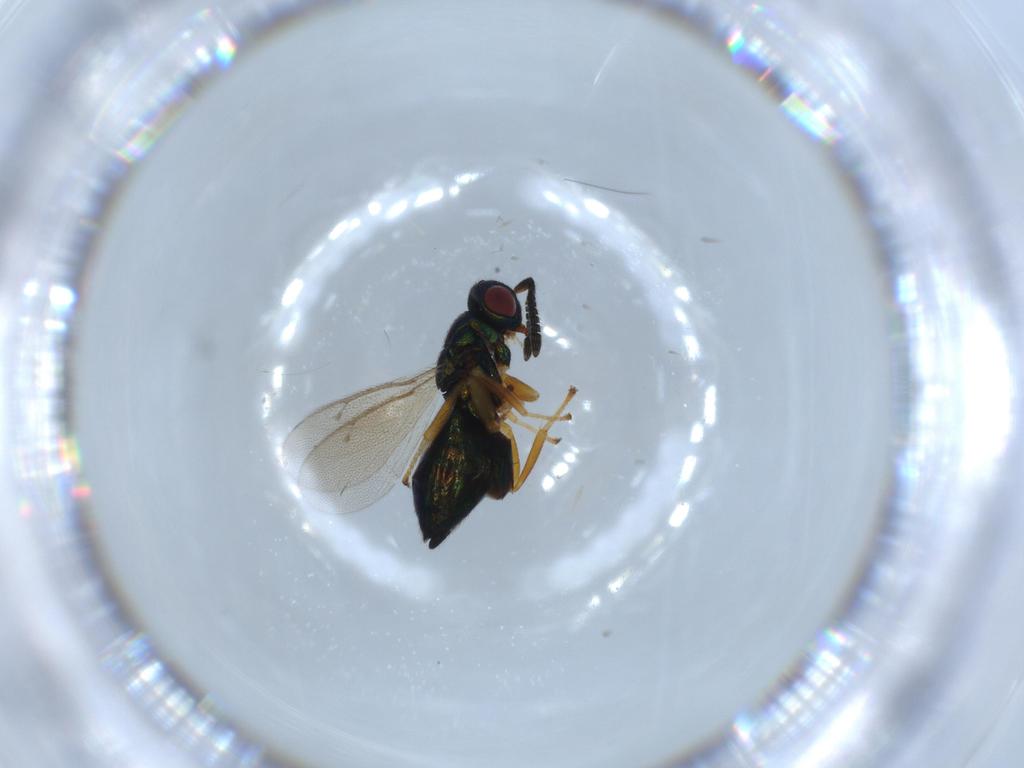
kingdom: Animalia
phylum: Arthropoda
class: Insecta
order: Hymenoptera
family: Pteromalidae
